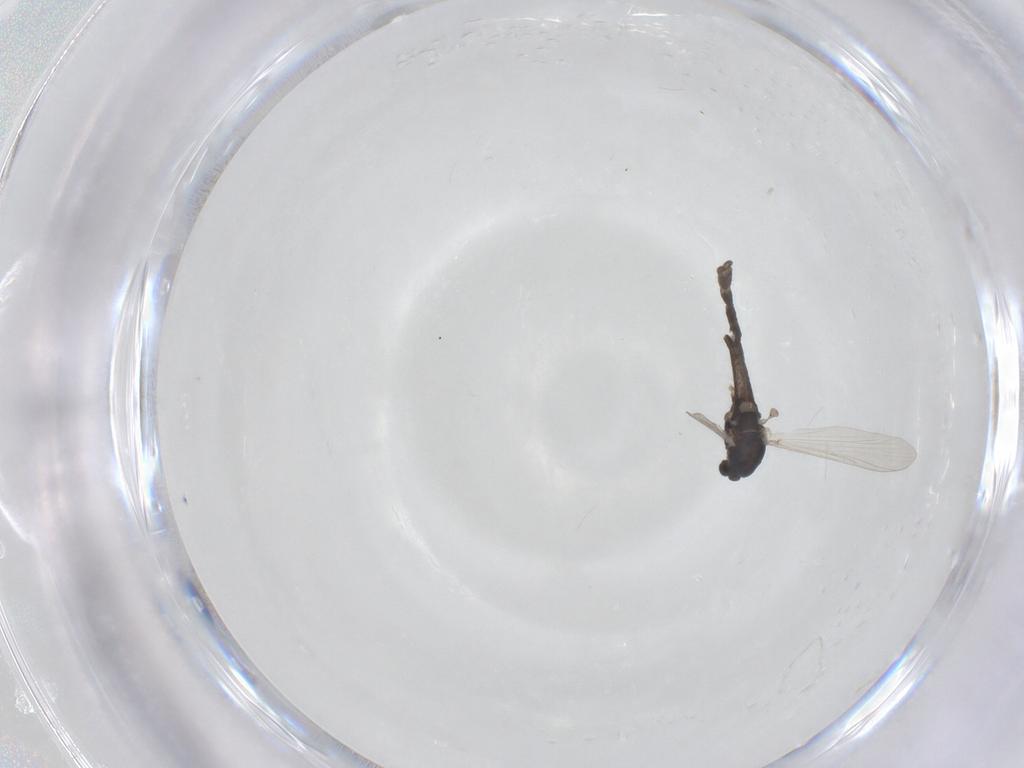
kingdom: Animalia
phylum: Arthropoda
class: Insecta
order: Diptera
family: Chironomidae
